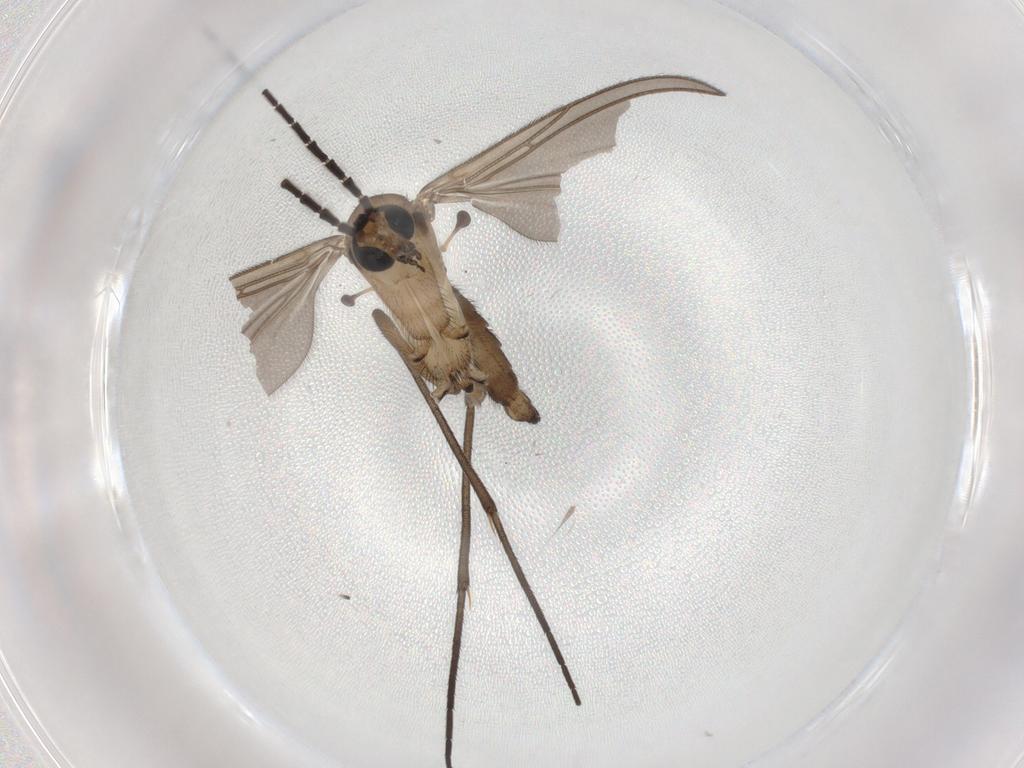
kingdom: Animalia
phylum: Arthropoda
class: Insecta
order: Diptera
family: Sciaridae
